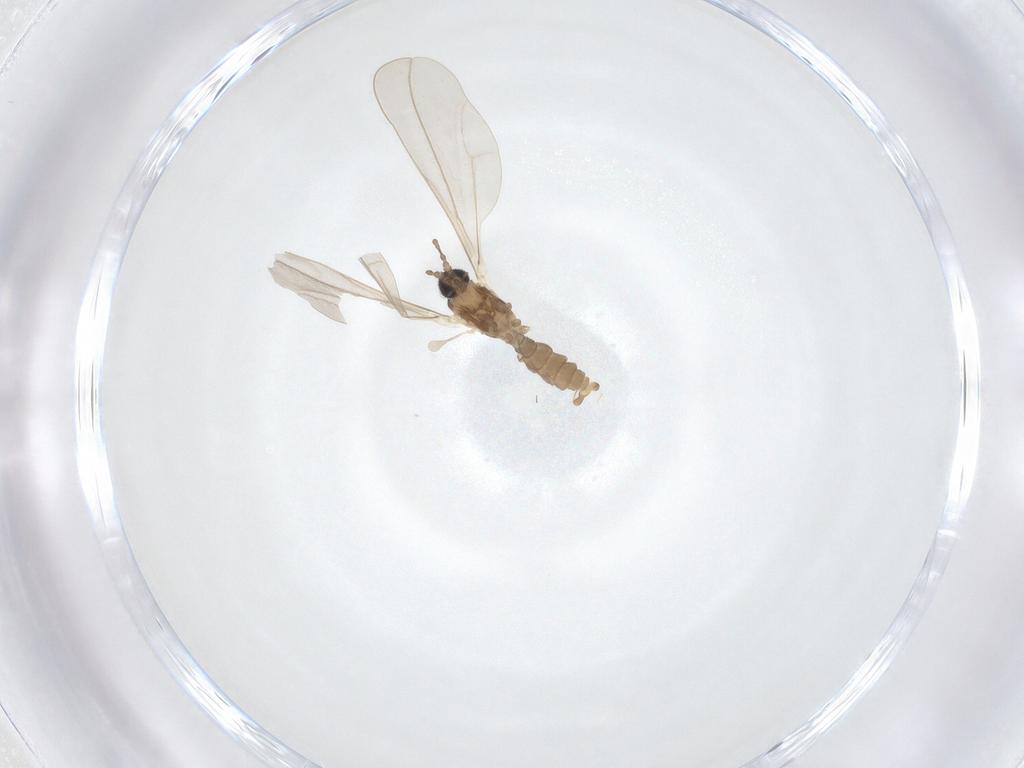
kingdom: Animalia
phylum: Arthropoda
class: Insecta
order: Diptera
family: Cecidomyiidae
